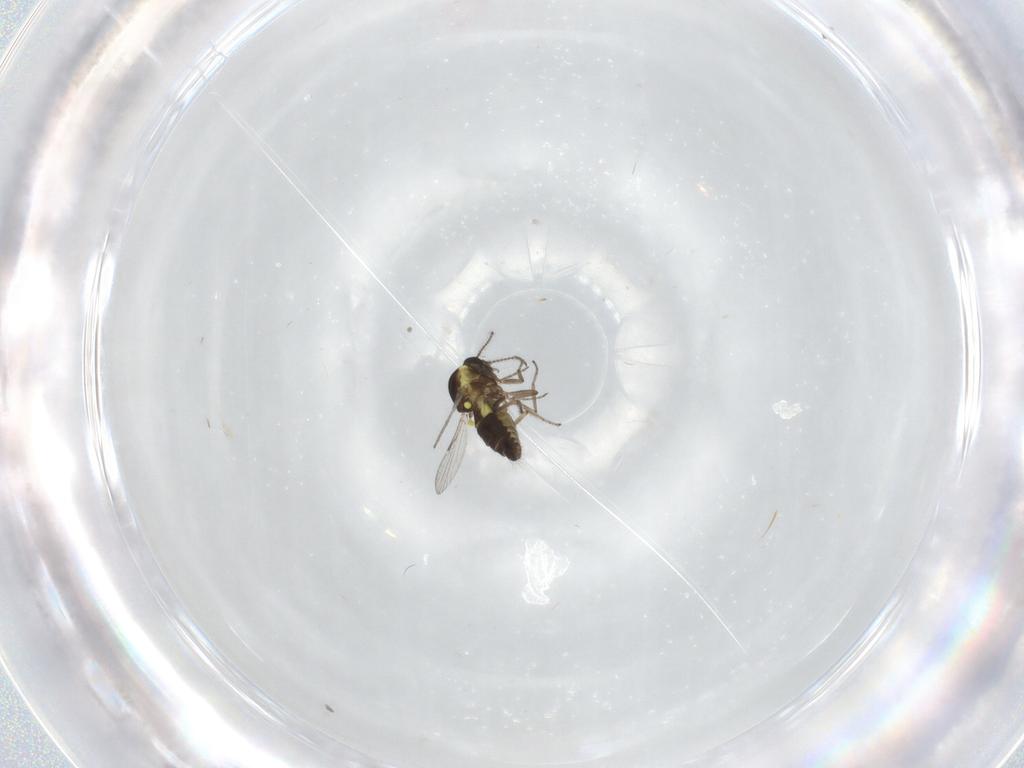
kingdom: Animalia
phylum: Arthropoda
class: Insecta
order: Diptera
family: Ceratopogonidae
